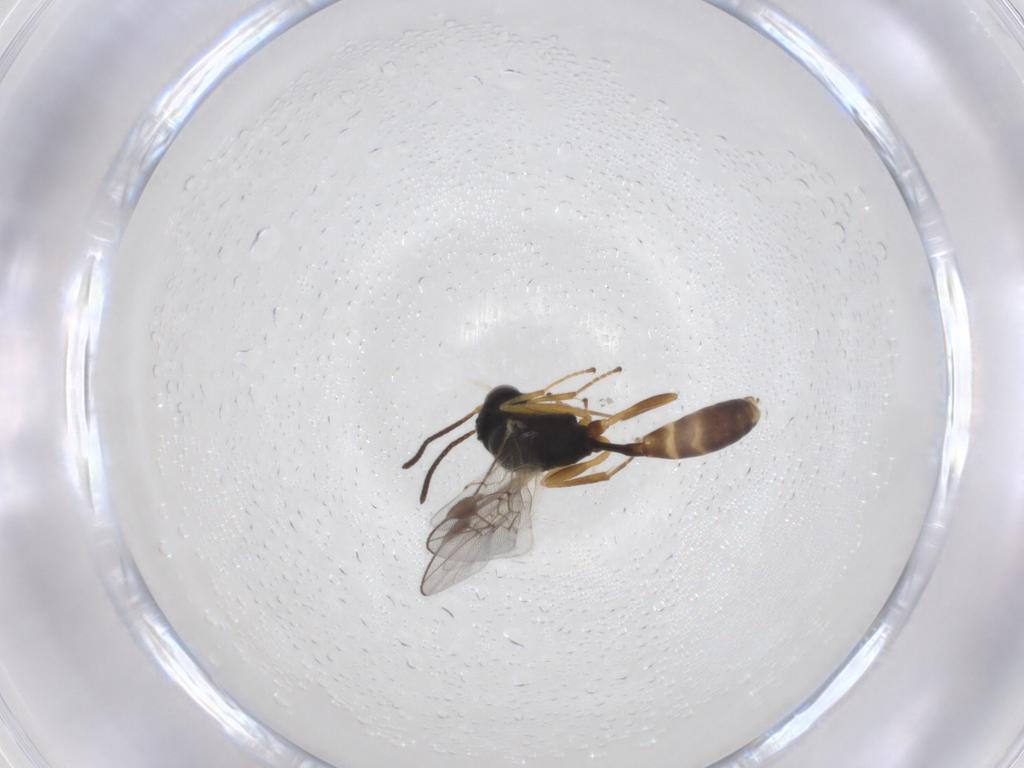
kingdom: Animalia
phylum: Arthropoda
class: Insecta
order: Hymenoptera
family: Ichneumonidae
